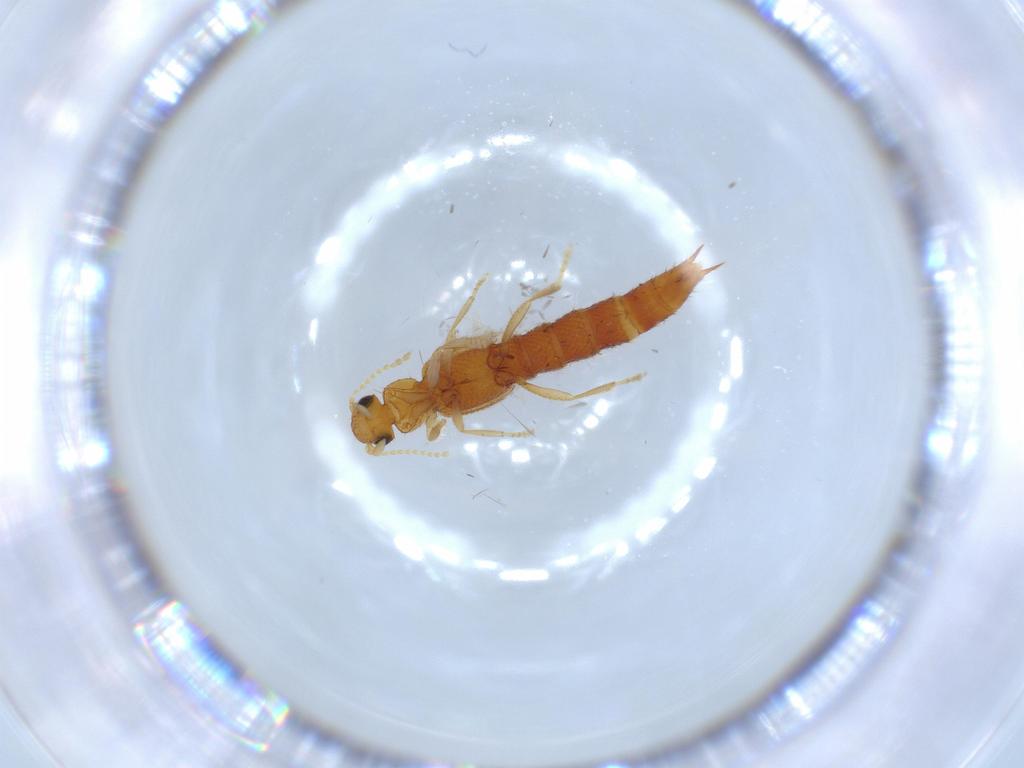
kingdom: Animalia
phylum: Arthropoda
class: Insecta
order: Coleoptera
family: Staphylinidae
